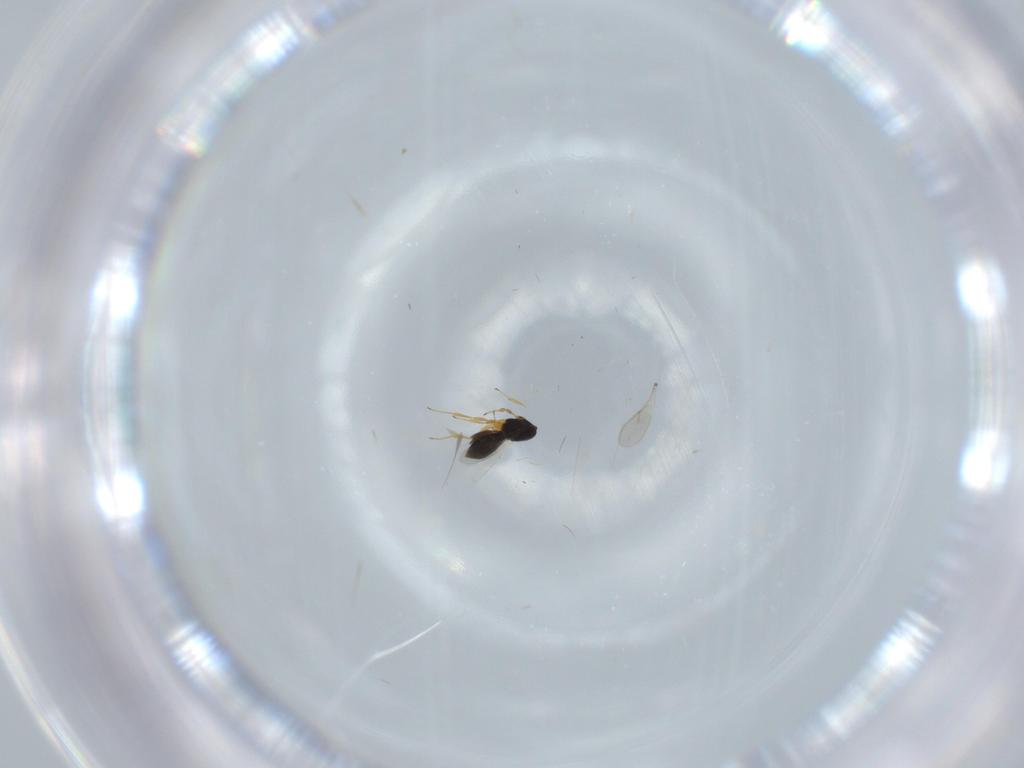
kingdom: Animalia
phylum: Arthropoda
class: Insecta
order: Hymenoptera
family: Scelionidae
